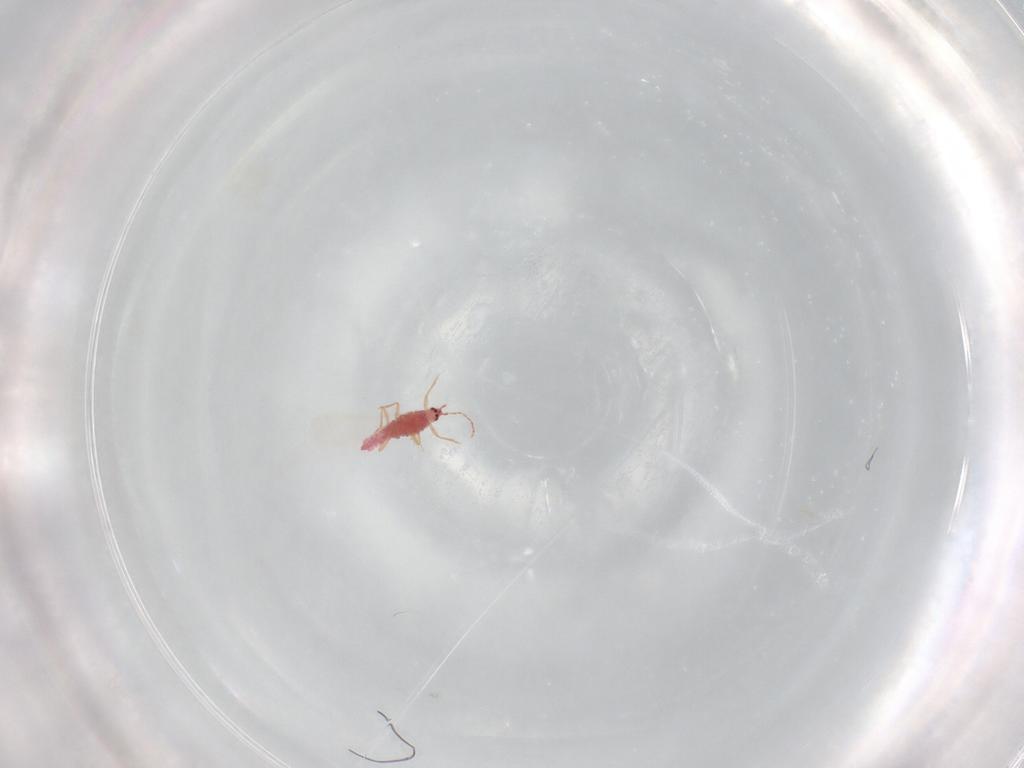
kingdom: Animalia
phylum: Arthropoda
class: Insecta
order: Hemiptera
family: Pseudococcidae
